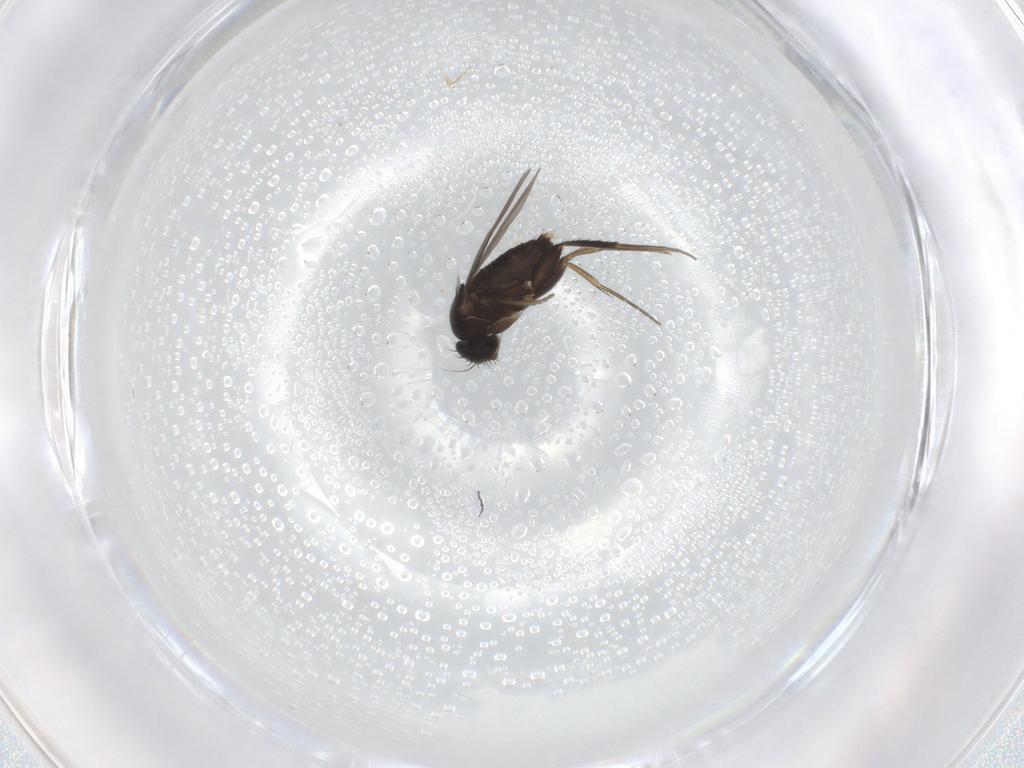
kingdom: Animalia
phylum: Arthropoda
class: Insecta
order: Diptera
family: Phoridae
